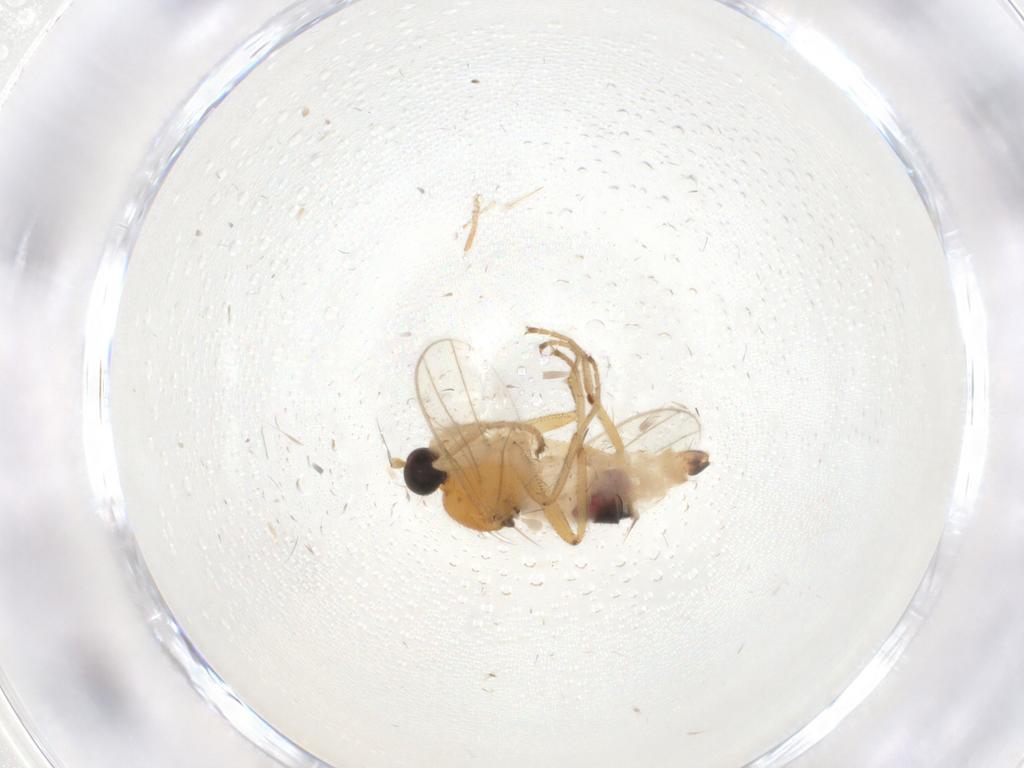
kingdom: Animalia
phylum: Arthropoda
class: Insecta
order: Diptera
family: Hybotidae
